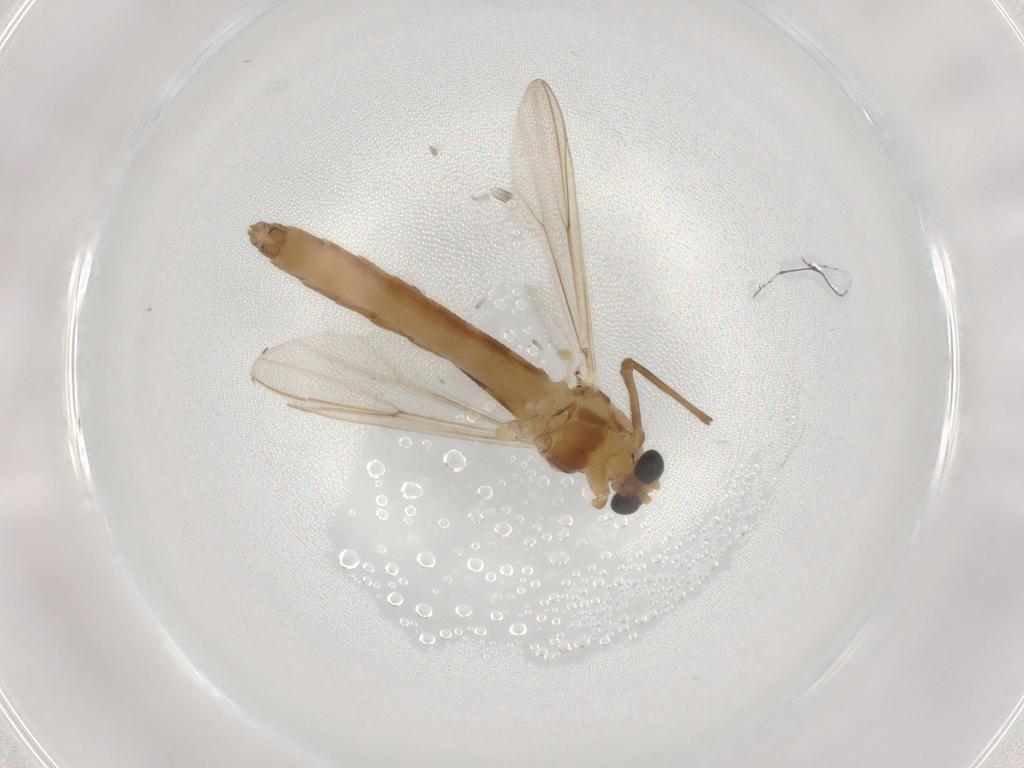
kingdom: Animalia
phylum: Arthropoda
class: Insecta
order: Diptera
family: Chironomidae
